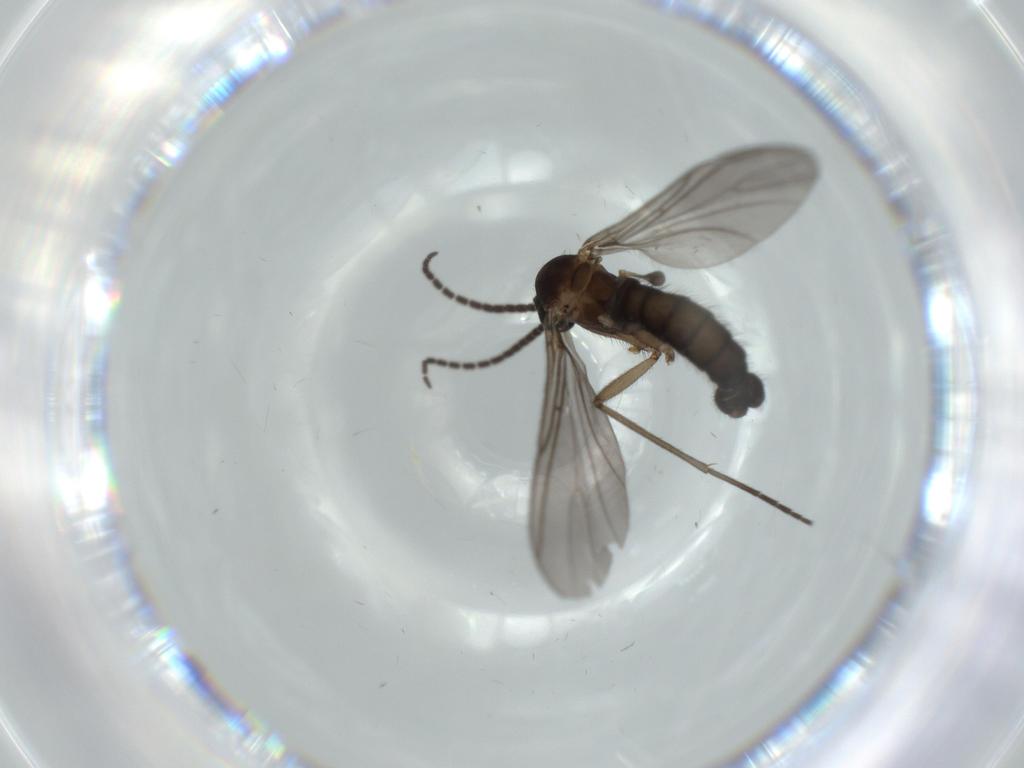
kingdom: Animalia
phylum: Arthropoda
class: Insecta
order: Diptera
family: Sciaridae
